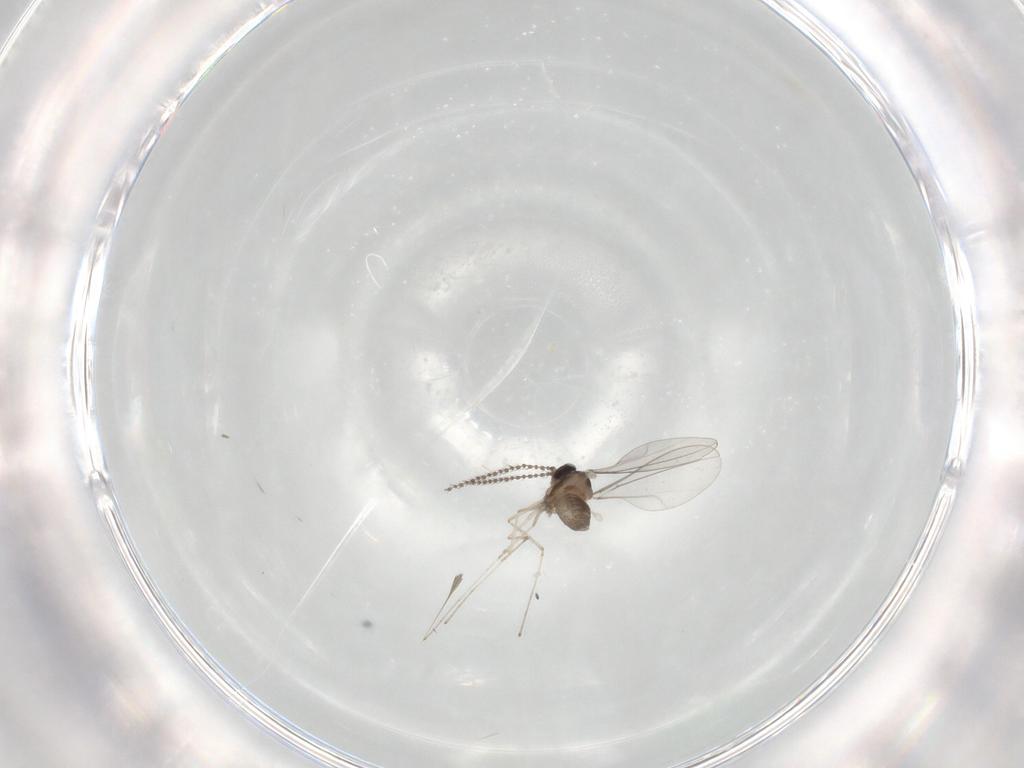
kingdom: Animalia
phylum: Arthropoda
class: Insecta
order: Diptera
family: Cecidomyiidae
